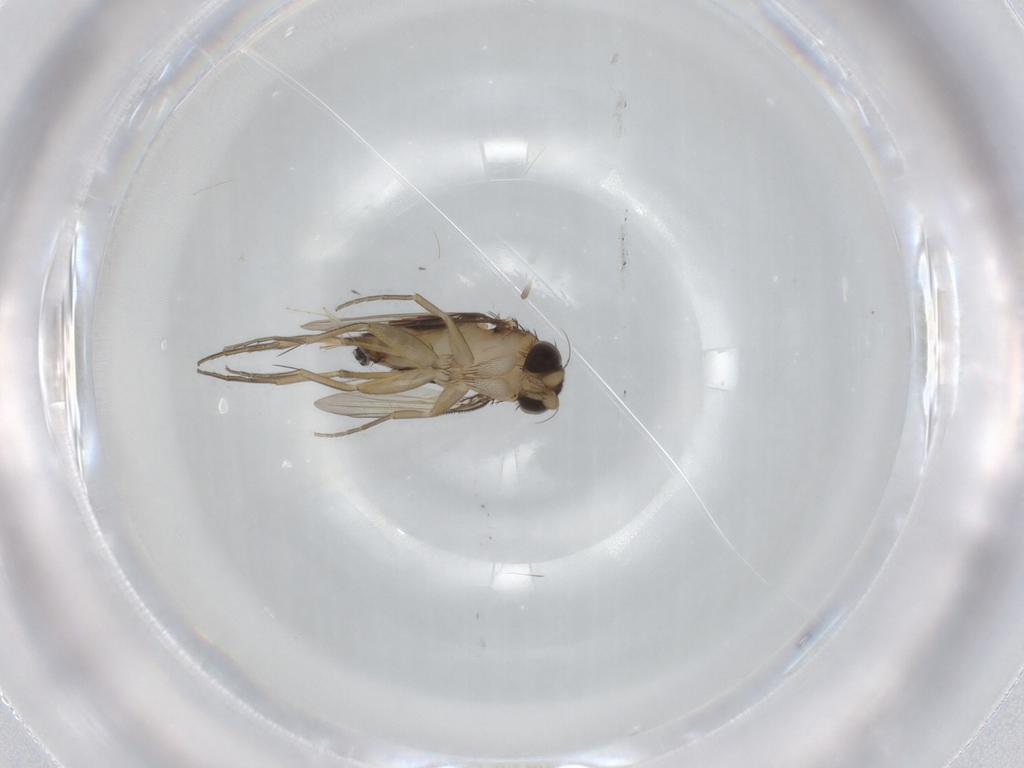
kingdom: Animalia
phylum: Arthropoda
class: Insecta
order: Diptera
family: Phoridae
